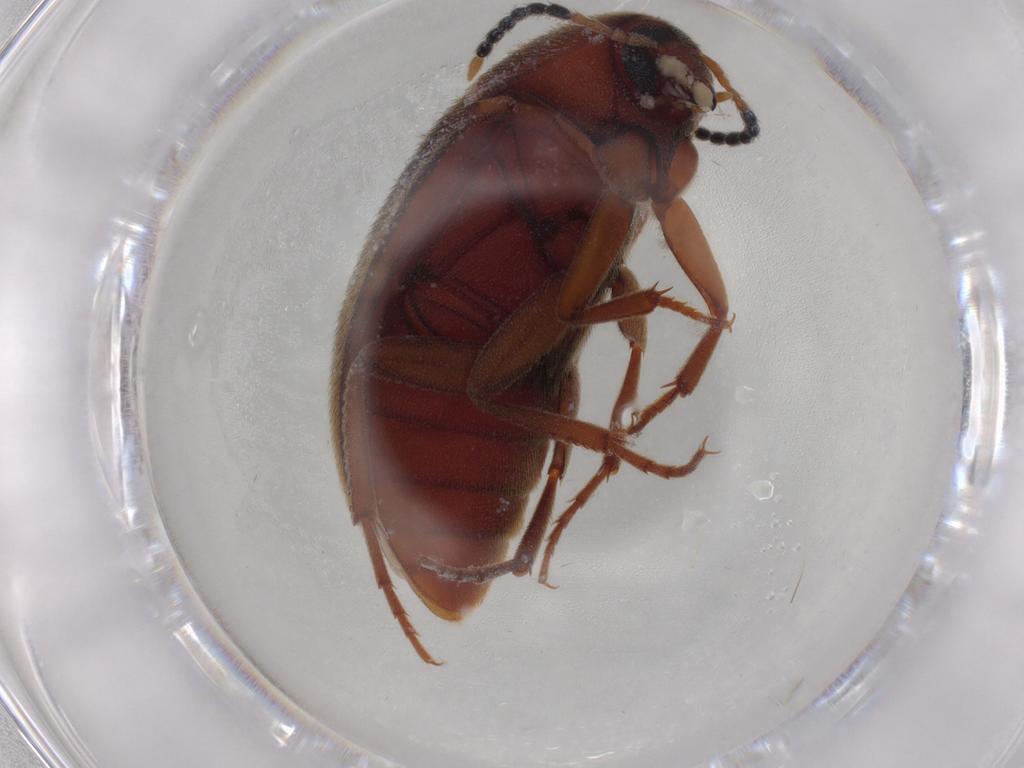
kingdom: Animalia
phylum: Arthropoda
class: Insecta
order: Coleoptera
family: Melandryidae
